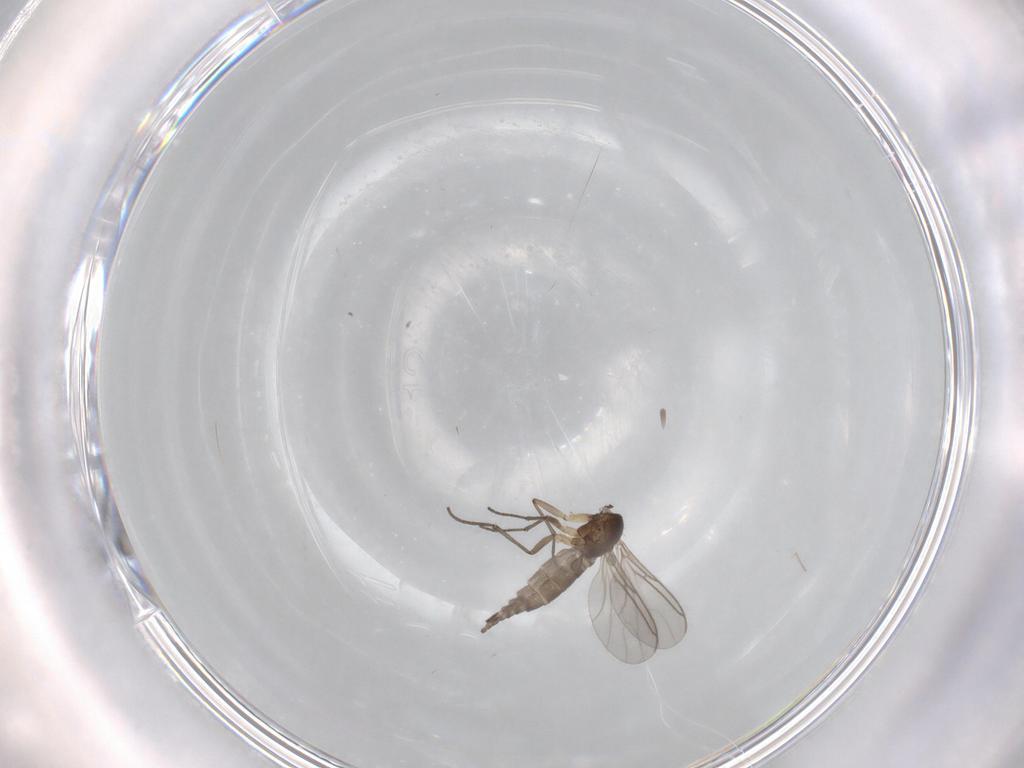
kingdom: Animalia
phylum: Arthropoda
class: Insecta
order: Diptera
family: Sciaridae
